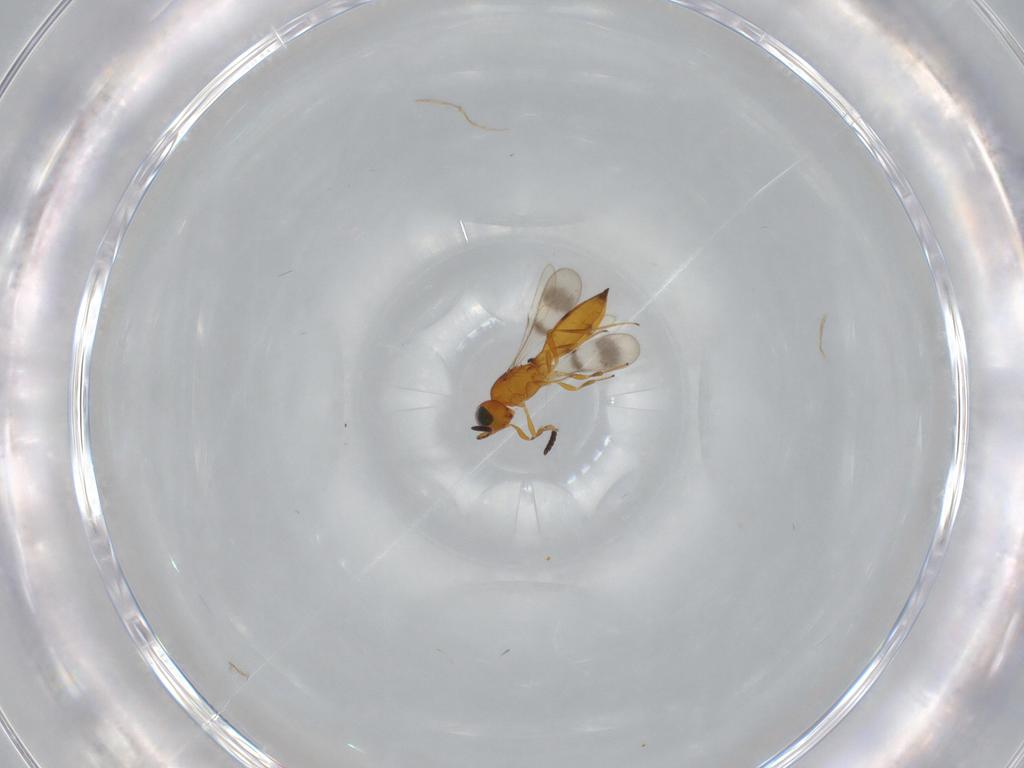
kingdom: Animalia
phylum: Arthropoda
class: Insecta
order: Hymenoptera
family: Scelionidae
